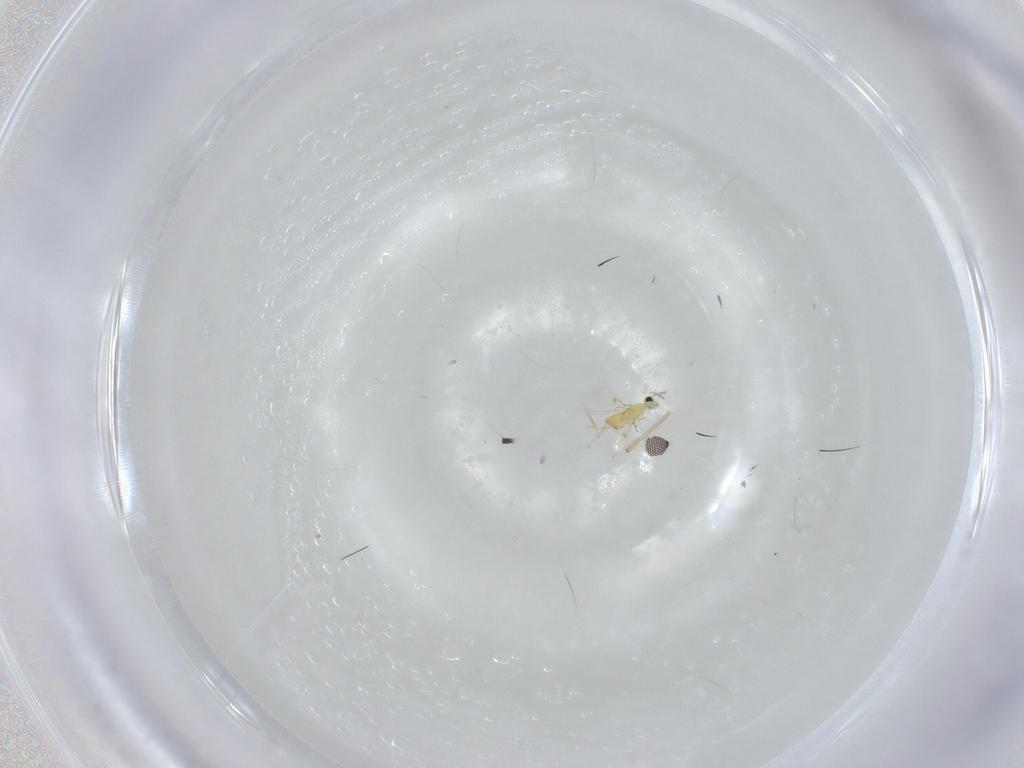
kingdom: Animalia
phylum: Arthropoda
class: Insecta
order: Hymenoptera
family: Trichogrammatidae
